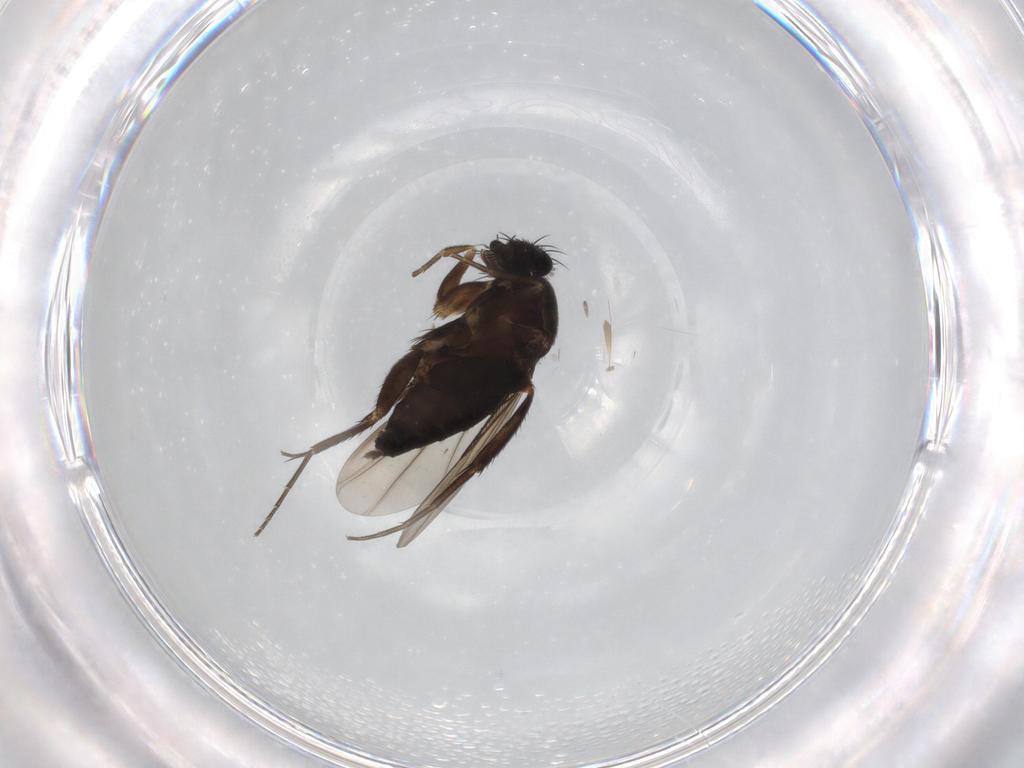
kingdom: Animalia
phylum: Arthropoda
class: Insecta
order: Diptera
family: Phoridae
